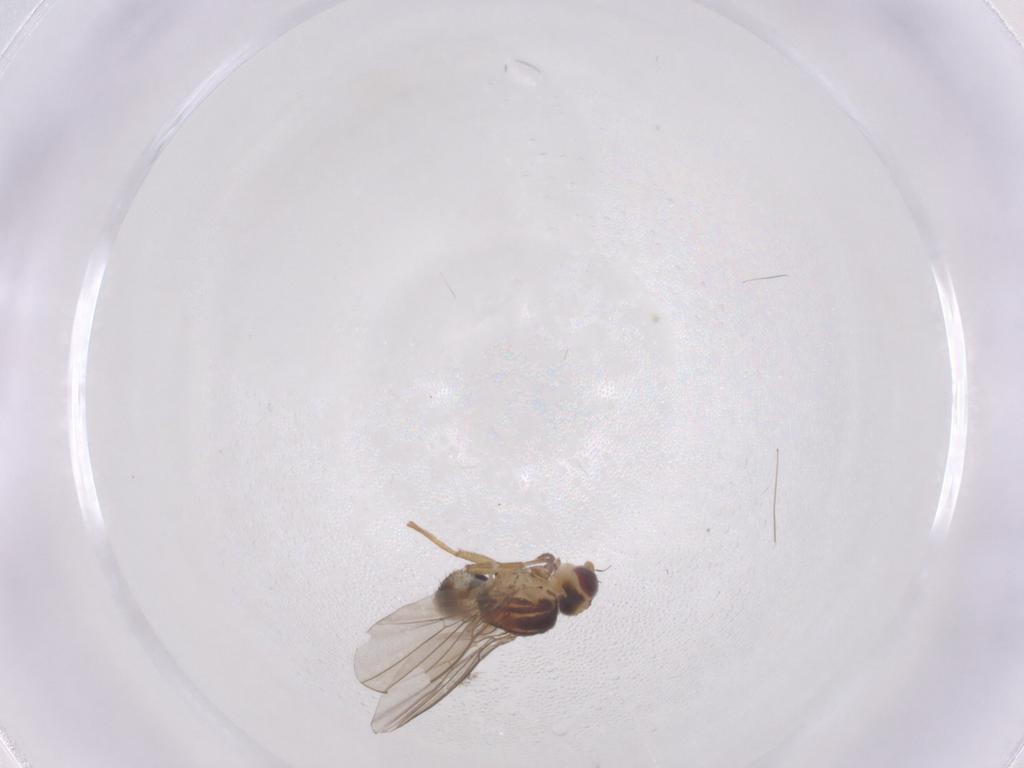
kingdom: Animalia
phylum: Arthropoda
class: Insecta
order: Diptera
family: Agromyzidae
